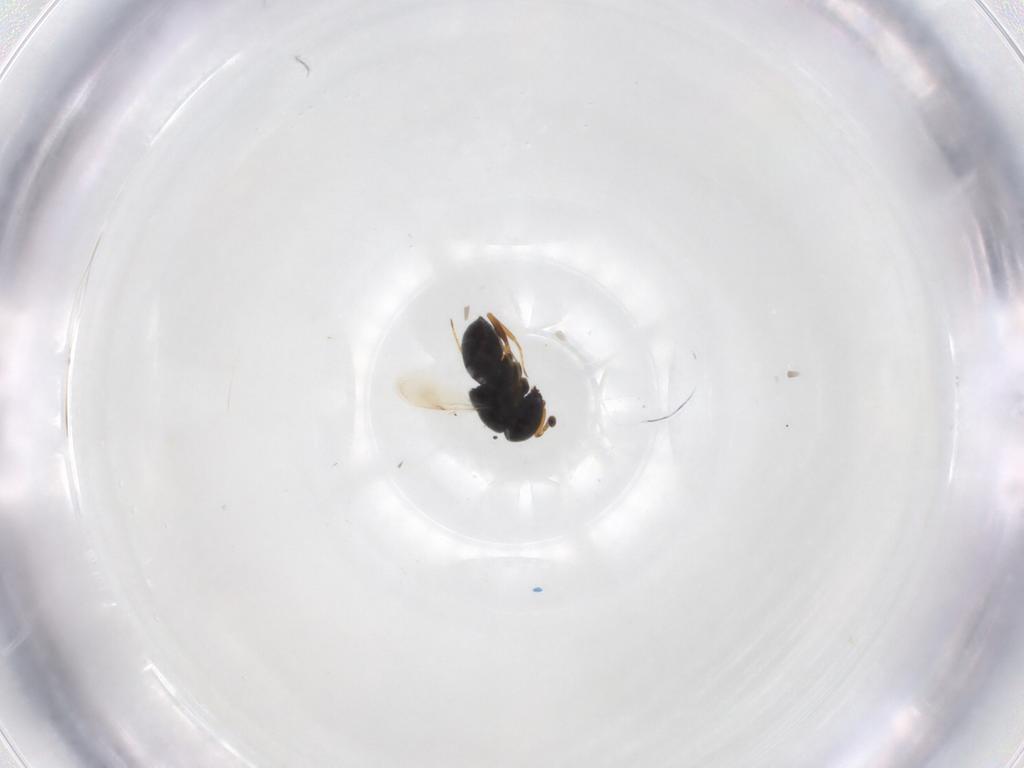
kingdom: Animalia
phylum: Arthropoda
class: Insecta
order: Hymenoptera
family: Scelionidae
